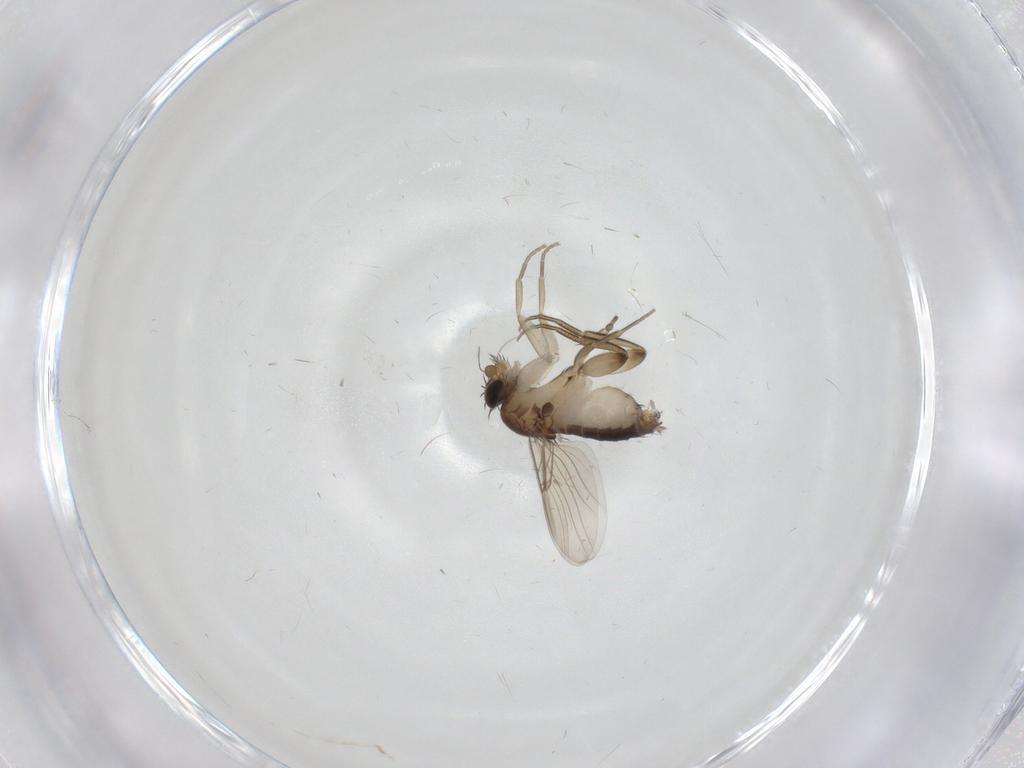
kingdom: Animalia
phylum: Arthropoda
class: Insecta
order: Diptera
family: Phoridae
